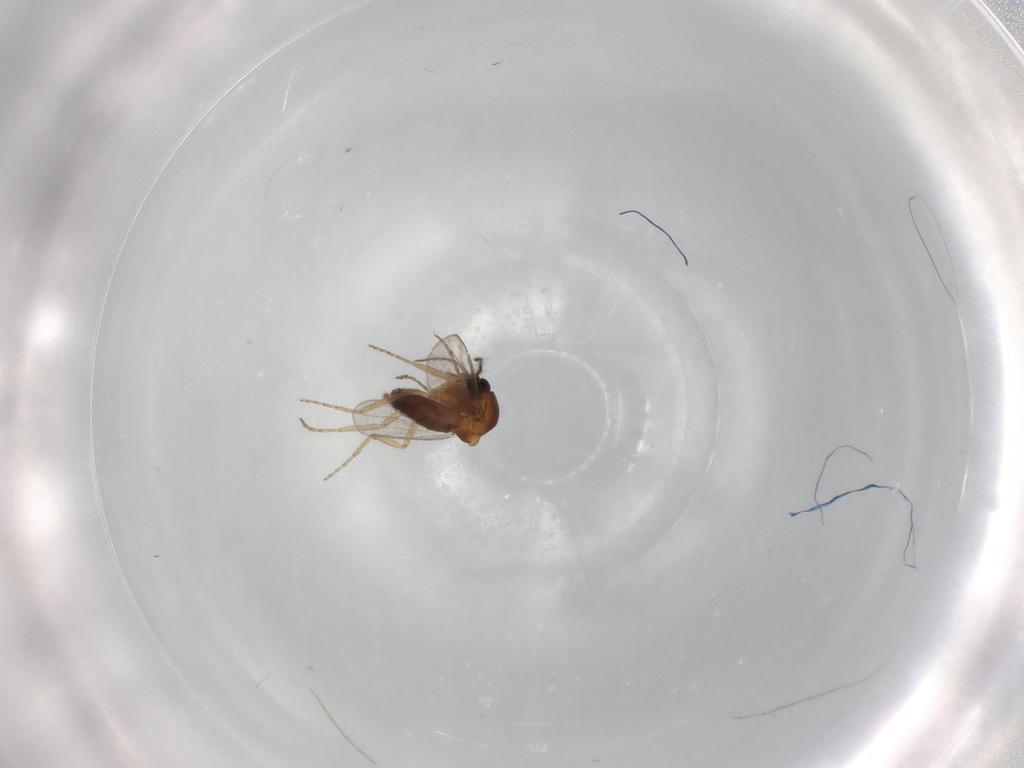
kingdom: Animalia
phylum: Arthropoda
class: Insecta
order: Diptera
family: Ceratopogonidae
